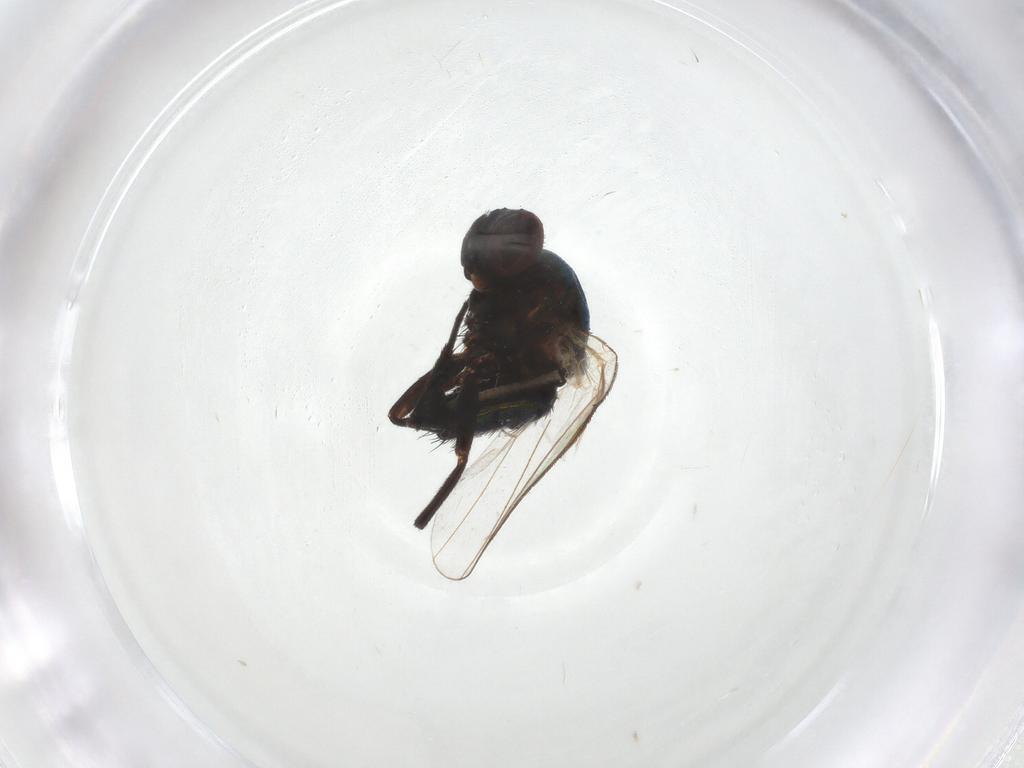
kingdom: Animalia
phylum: Arthropoda
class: Insecta
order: Diptera
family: Agromyzidae
